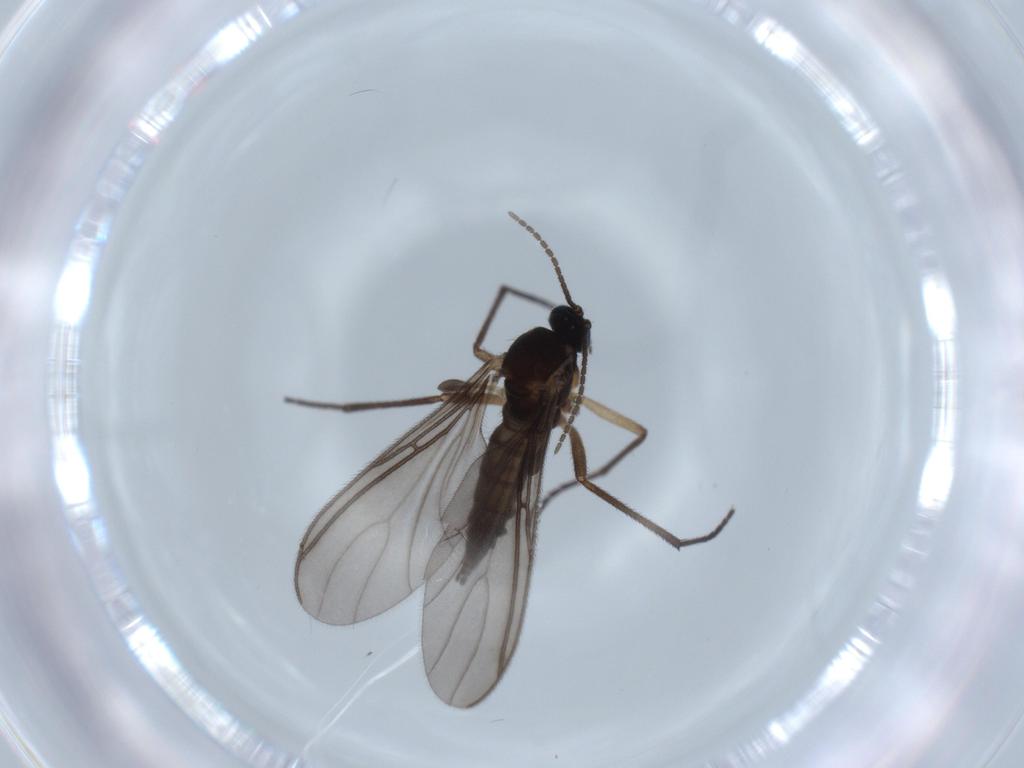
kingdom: Animalia
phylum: Arthropoda
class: Insecta
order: Diptera
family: Sciaridae
